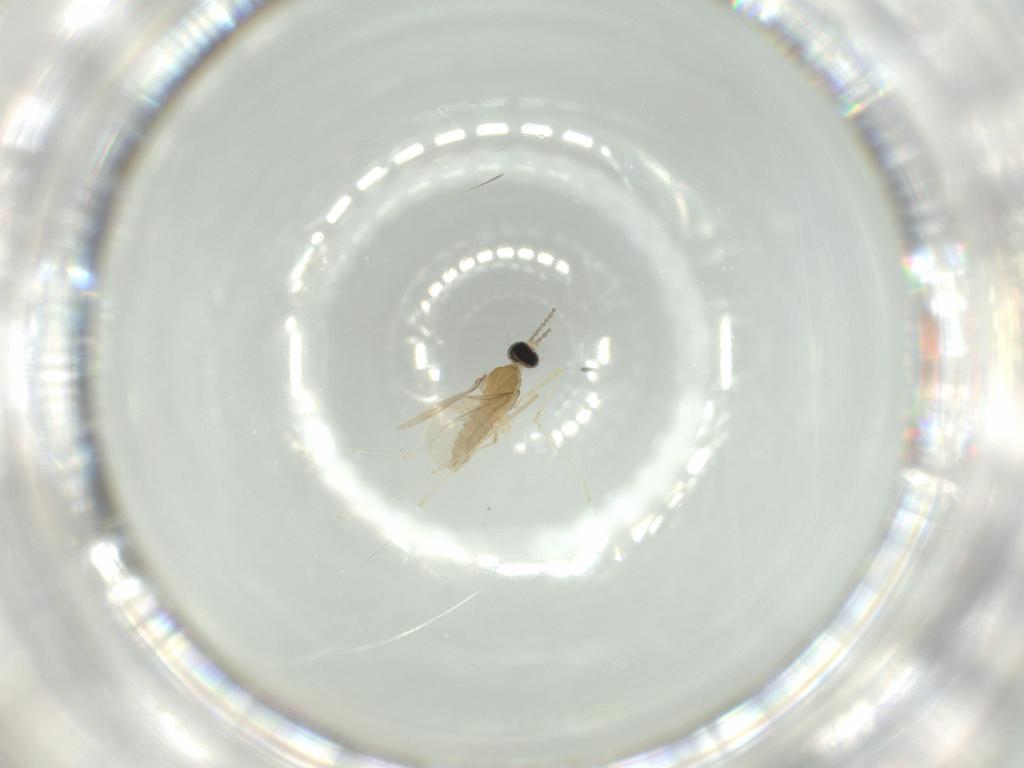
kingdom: Animalia
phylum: Arthropoda
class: Insecta
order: Diptera
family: Cecidomyiidae
